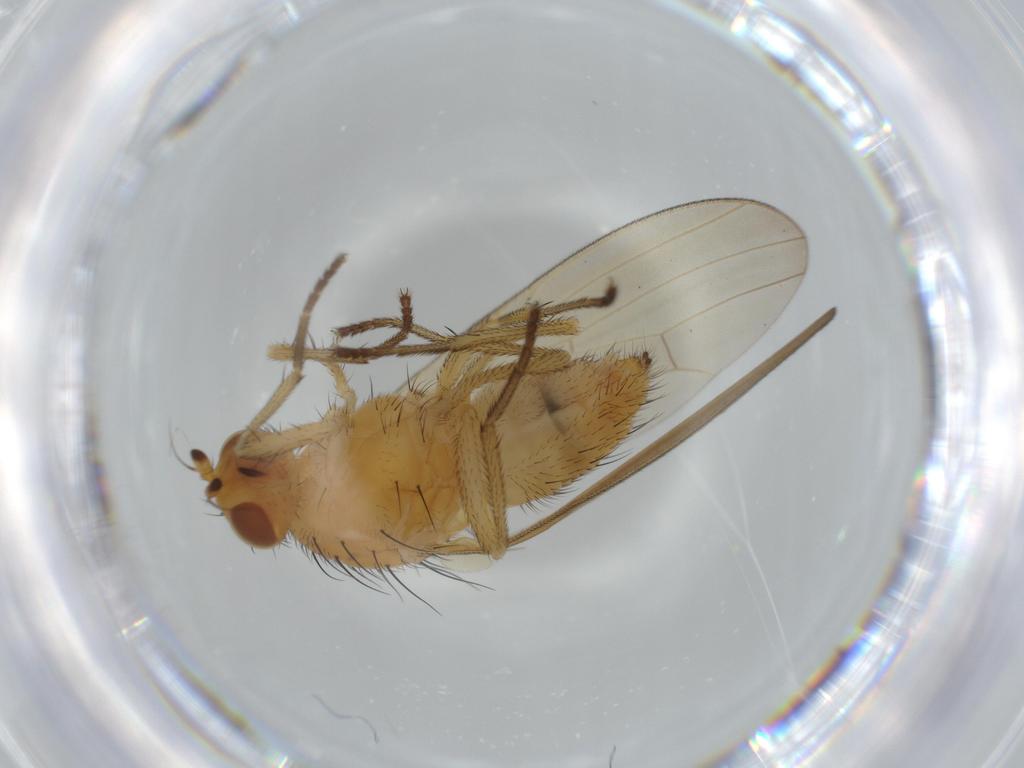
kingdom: Animalia
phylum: Arthropoda
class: Insecta
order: Diptera
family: Lauxaniidae
